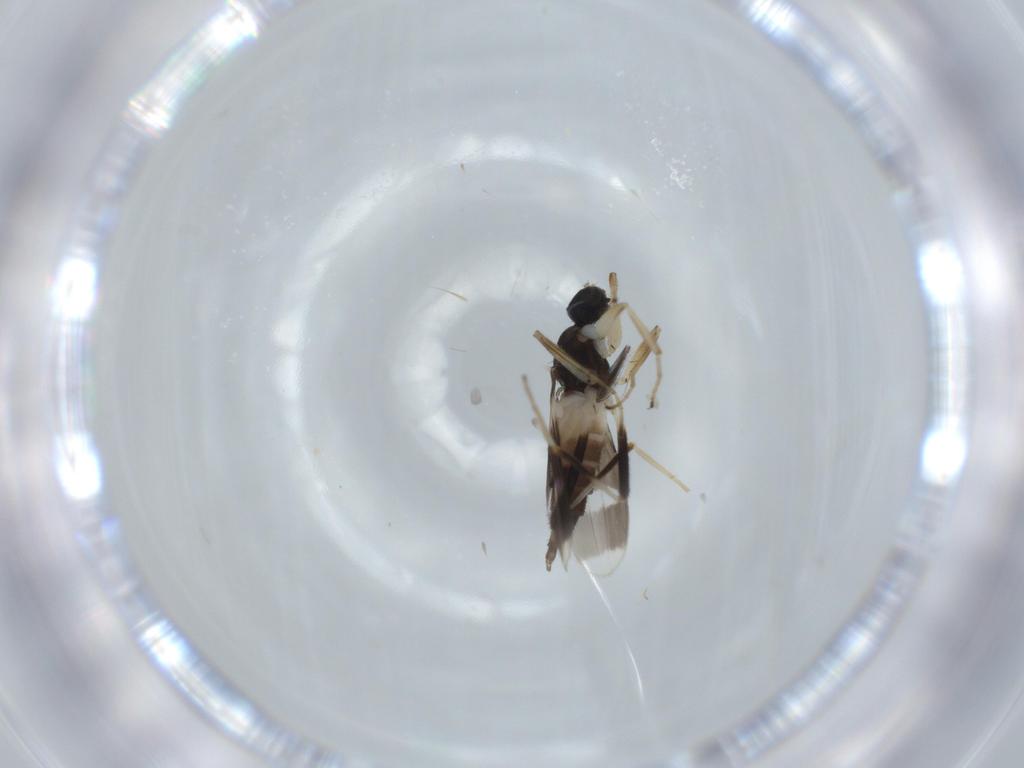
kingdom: Animalia
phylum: Arthropoda
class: Insecta
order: Diptera
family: Hybotidae
